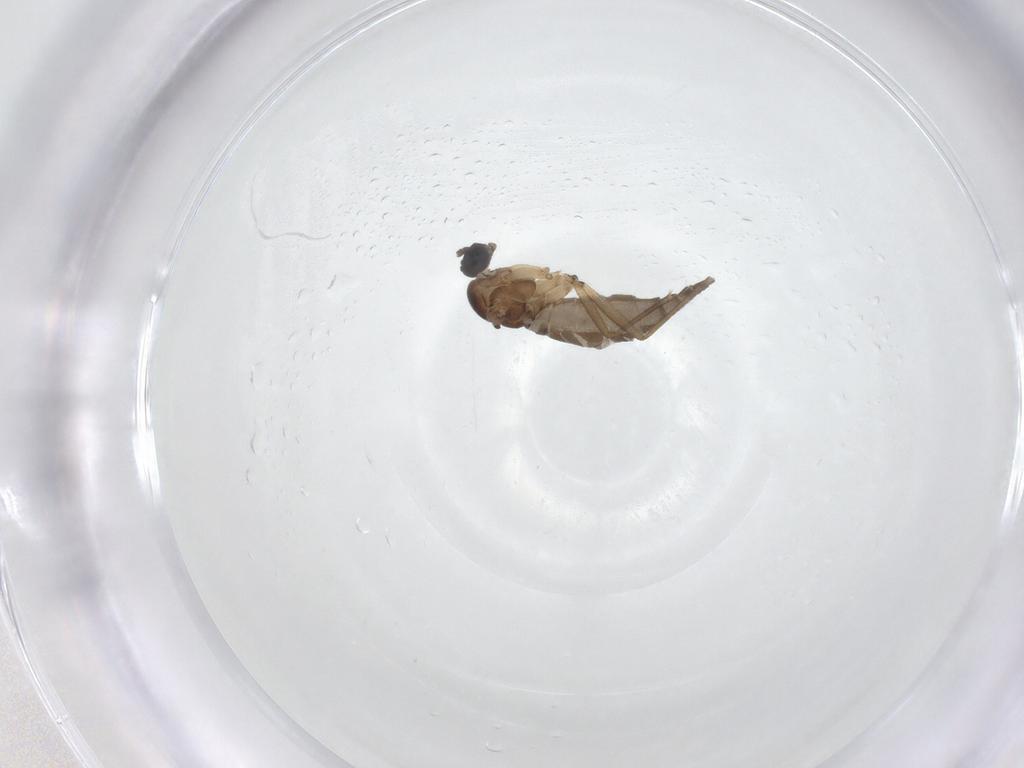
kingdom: Animalia
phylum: Arthropoda
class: Insecta
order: Diptera
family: Sciaridae
